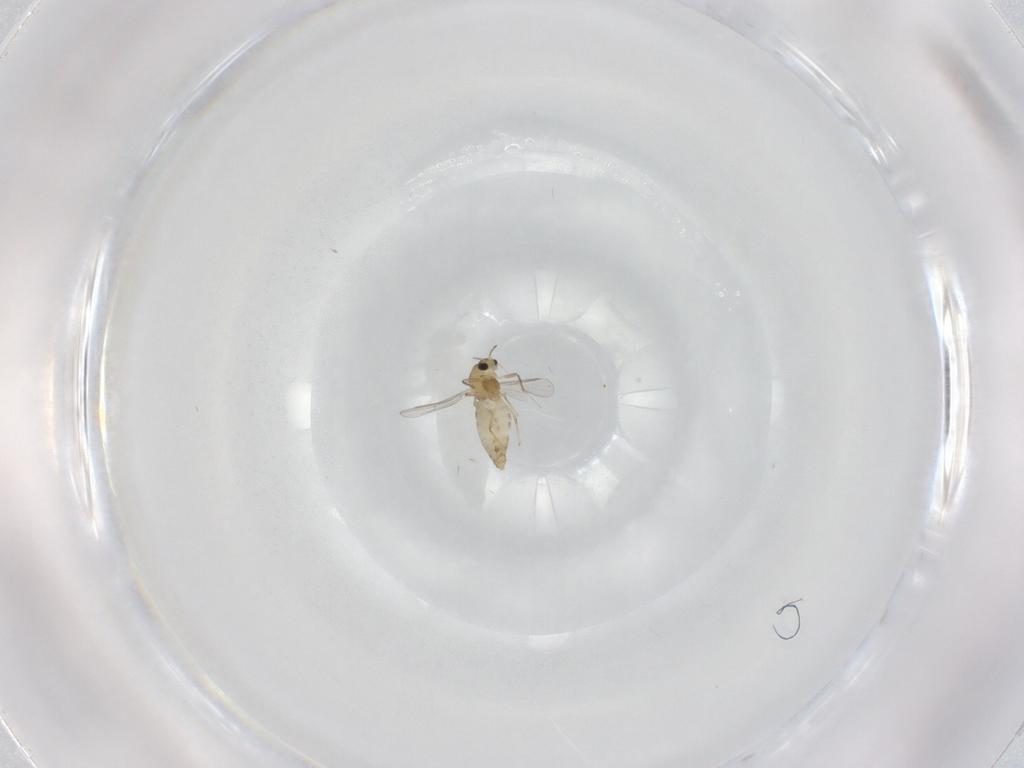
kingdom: Animalia
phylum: Arthropoda
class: Insecta
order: Diptera
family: Chironomidae
